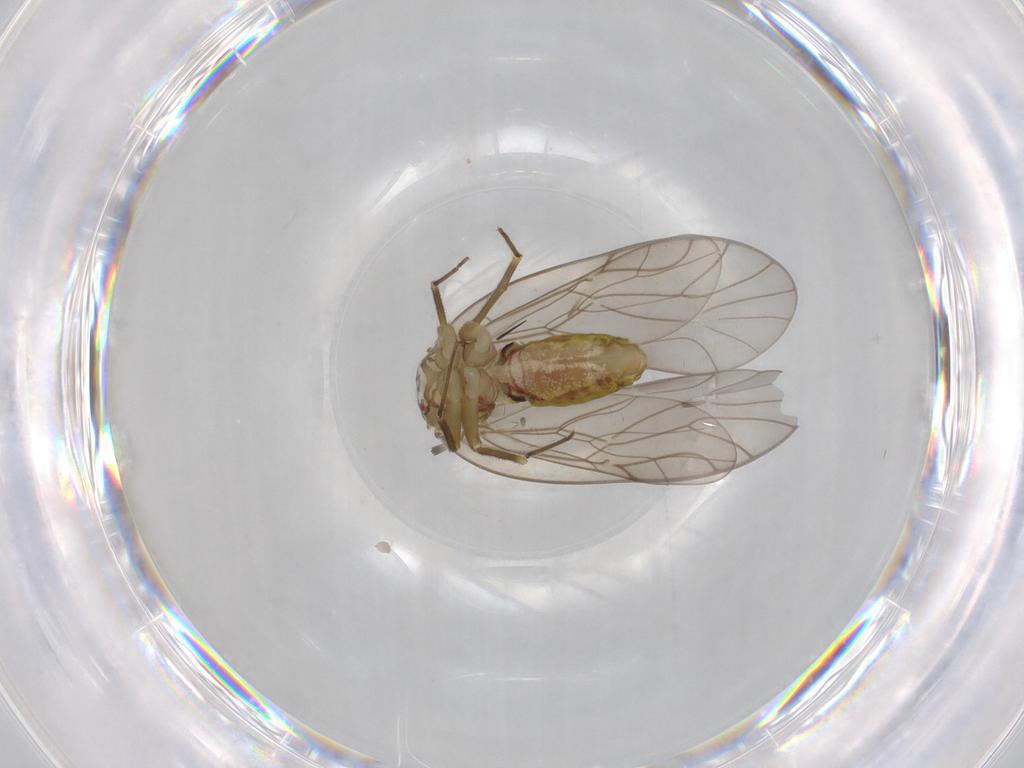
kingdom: Animalia
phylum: Arthropoda
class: Insecta
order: Psocodea
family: Philotarsidae
